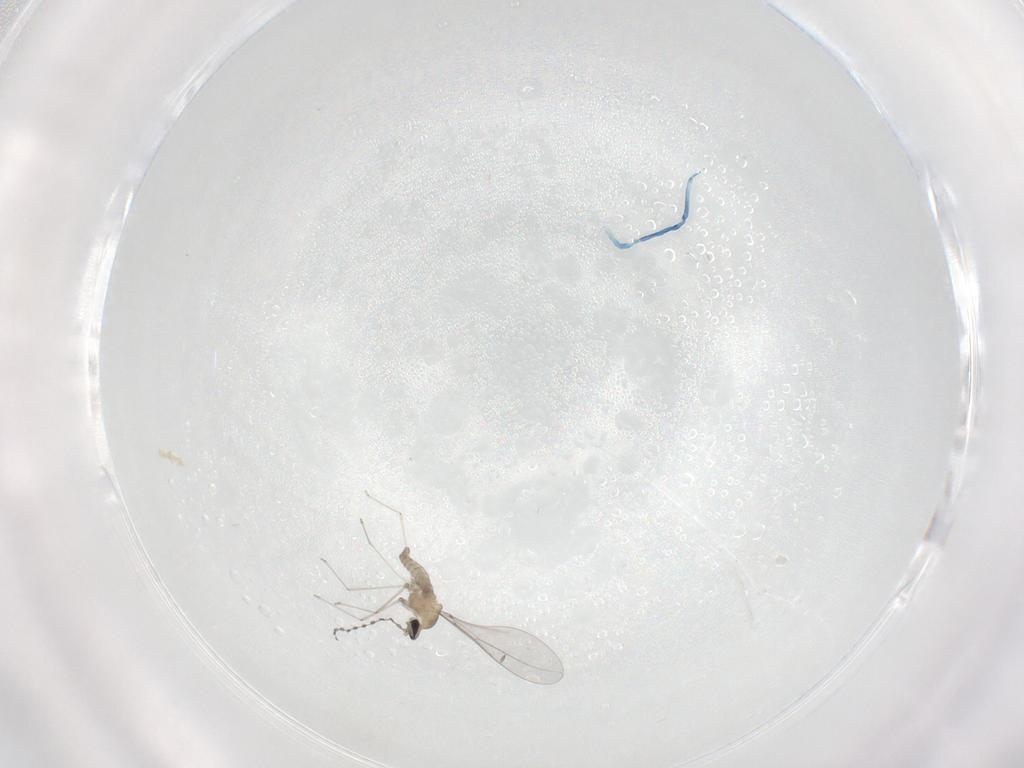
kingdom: Animalia
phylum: Arthropoda
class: Insecta
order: Diptera
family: Cecidomyiidae
